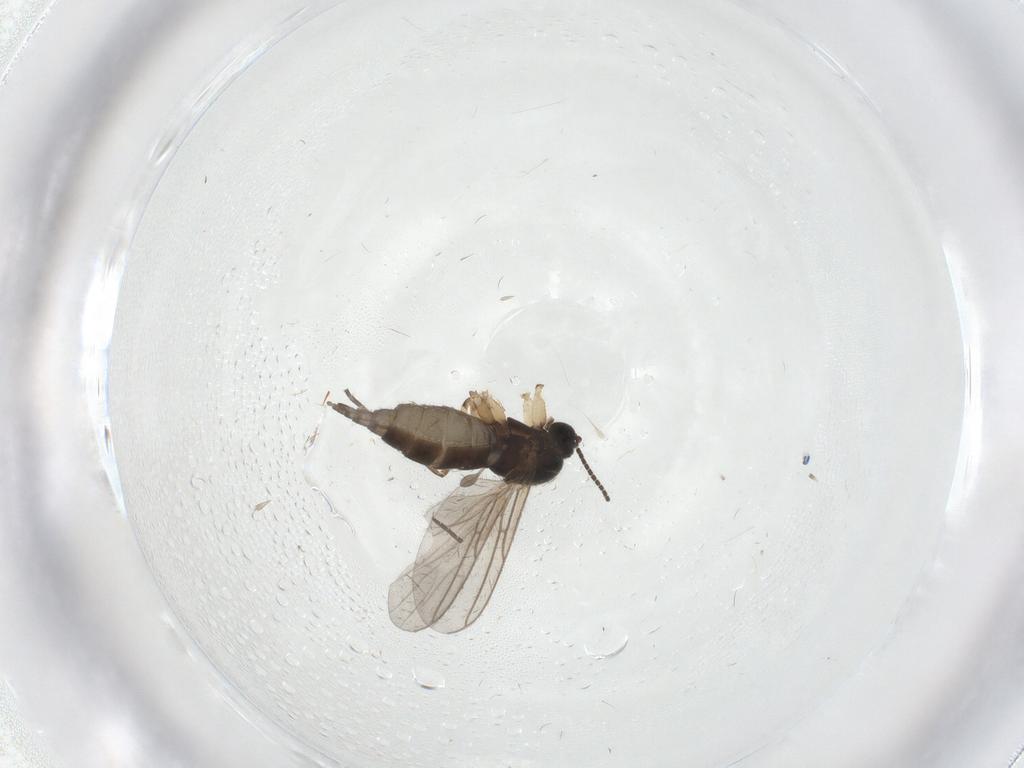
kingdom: Animalia
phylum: Arthropoda
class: Insecta
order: Diptera
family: Sciaridae
